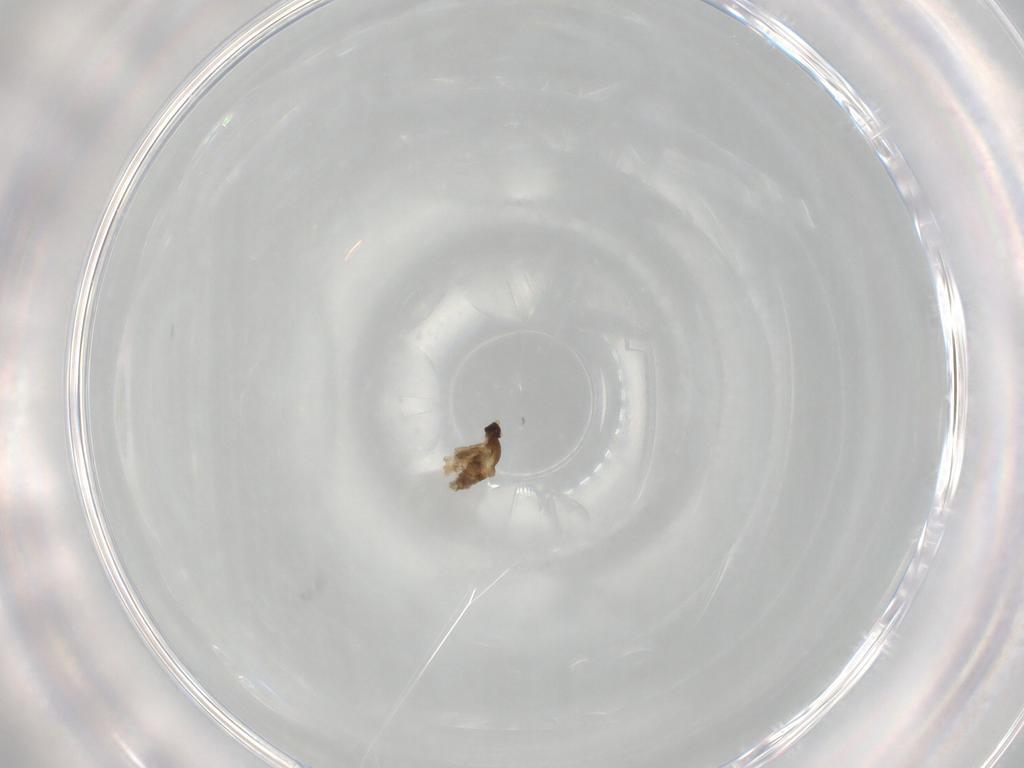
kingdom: Animalia
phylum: Arthropoda
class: Insecta
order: Diptera
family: Cecidomyiidae
